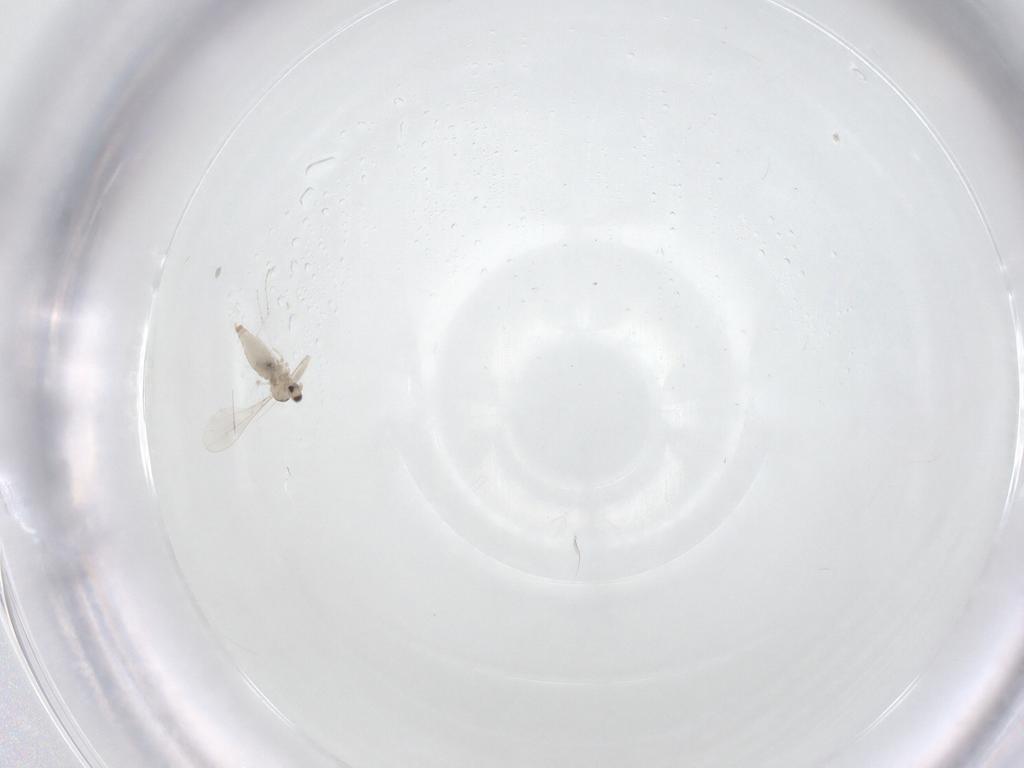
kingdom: Animalia
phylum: Arthropoda
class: Insecta
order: Diptera
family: Cecidomyiidae
